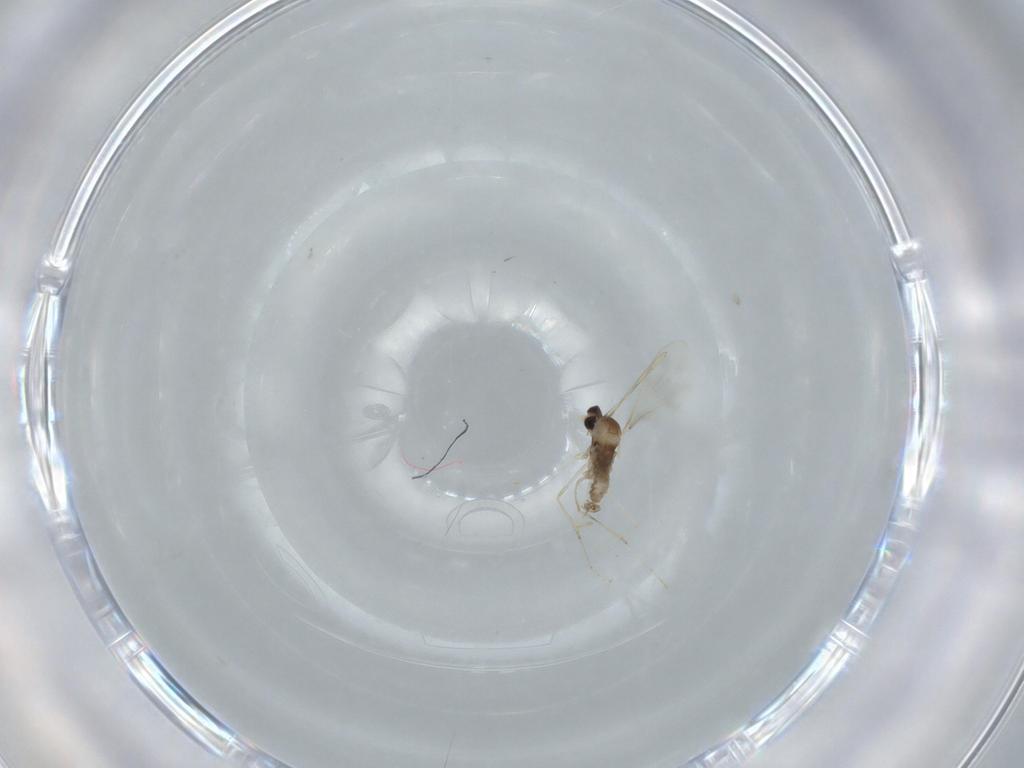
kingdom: Animalia
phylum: Arthropoda
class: Insecta
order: Diptera
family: Cecidomyiidae
